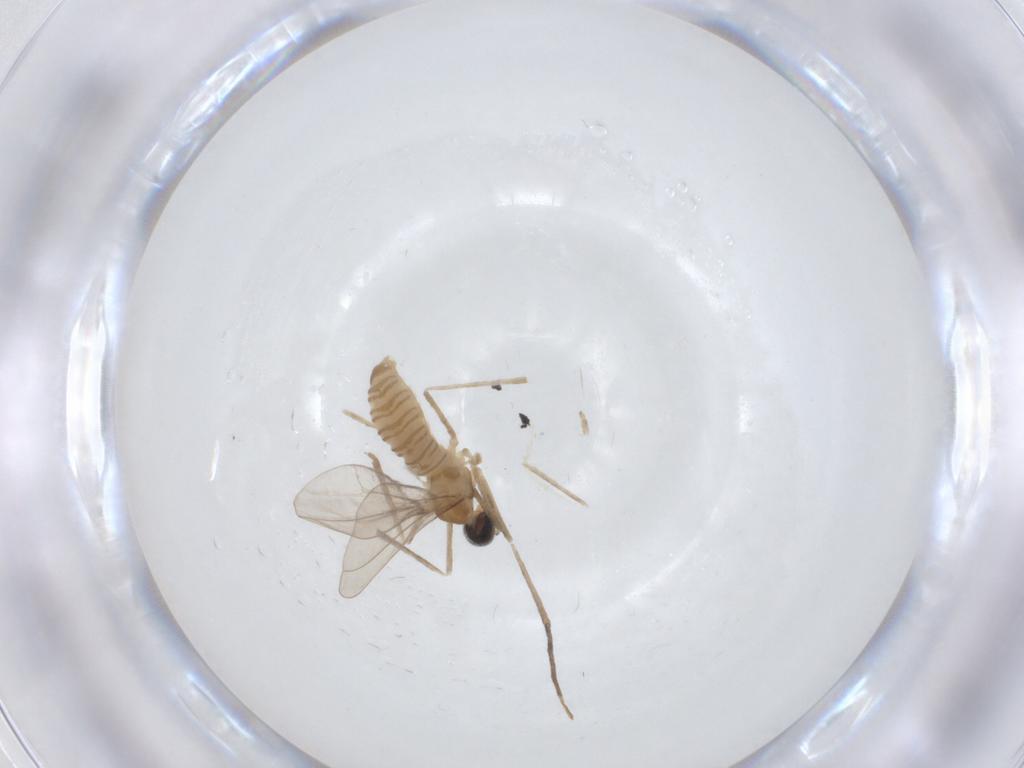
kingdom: Animalia
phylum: Arthropoda
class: Insecta
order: Diptera
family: Cecidomyiidae
